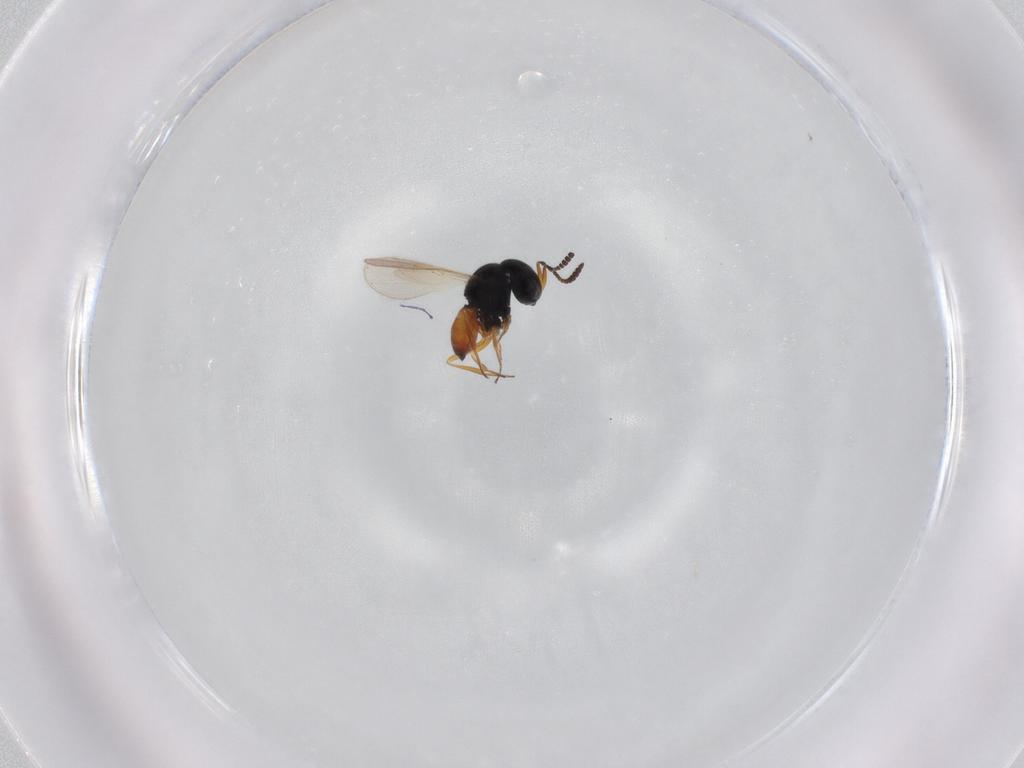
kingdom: Animalia
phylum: Arthropoda
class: Insecta
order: Hymenoptera
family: Scelionidae
